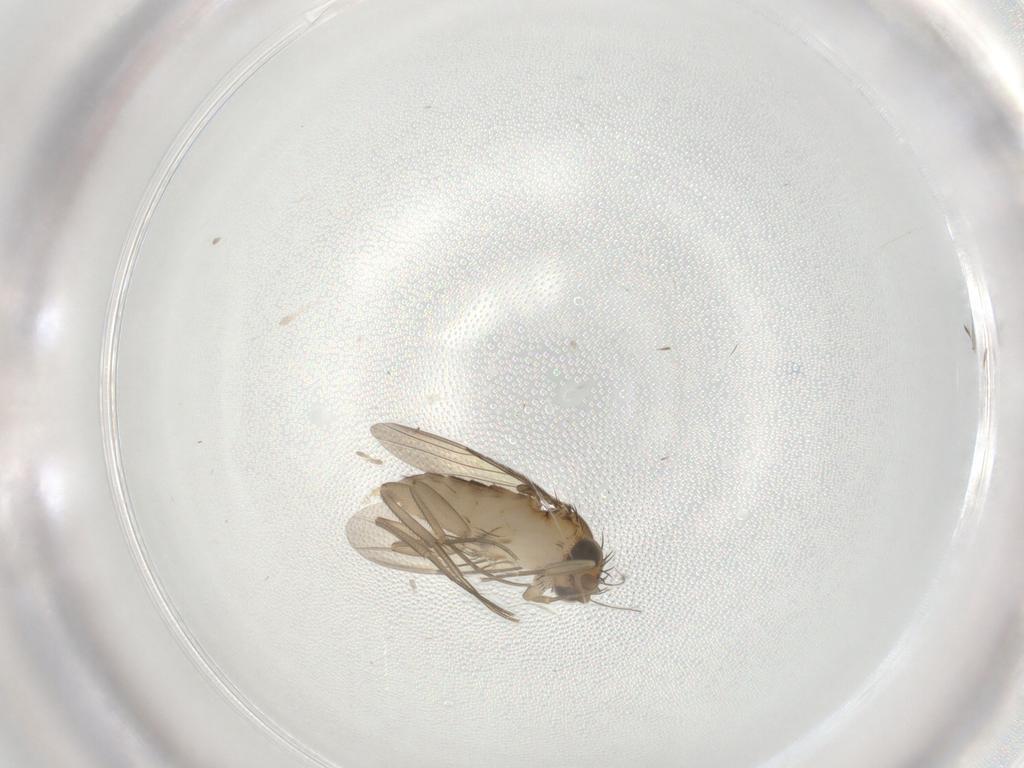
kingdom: Animalia
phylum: Arthropoda
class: Insecta
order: Diptera
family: Phoridae
